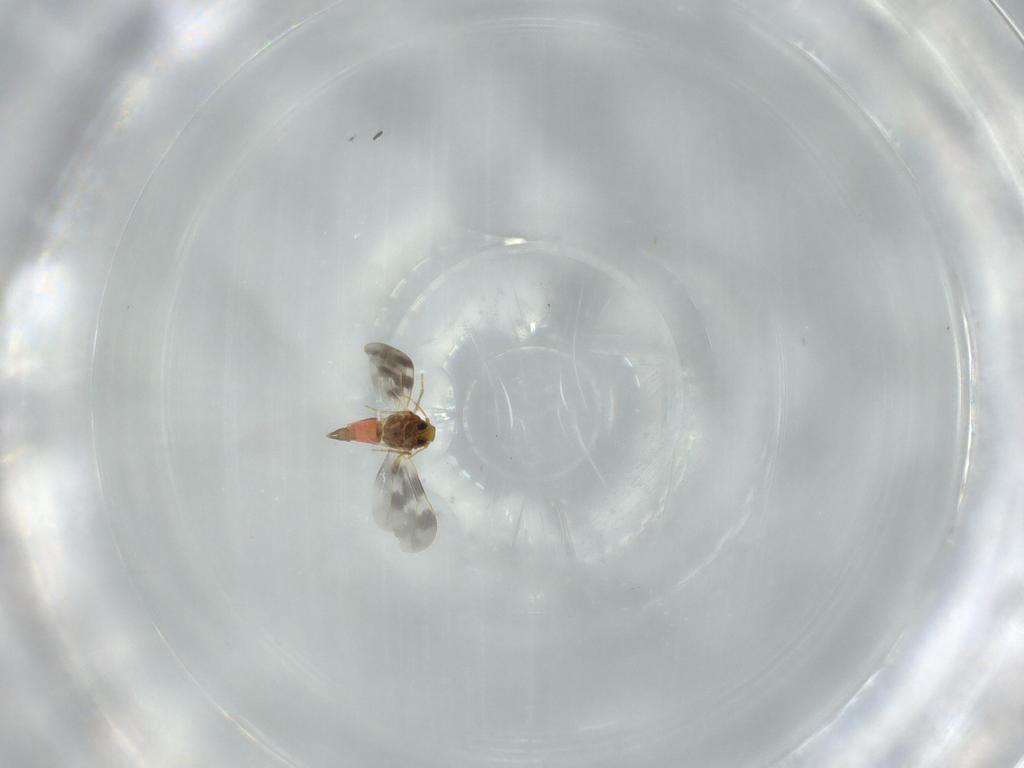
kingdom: Animalia
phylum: Arthropoda
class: Insecta
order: Hemiptera
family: Aleyrodidae
